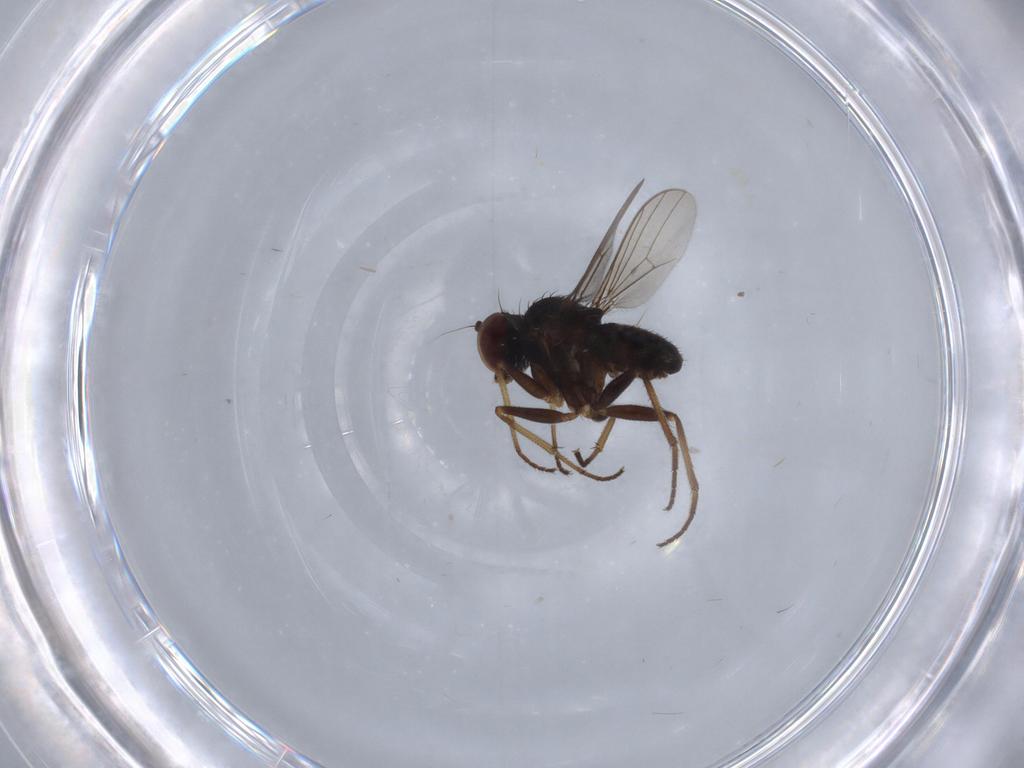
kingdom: Animalia
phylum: Arthropoda
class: Insecta
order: Diptera
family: Dolichopodidae
